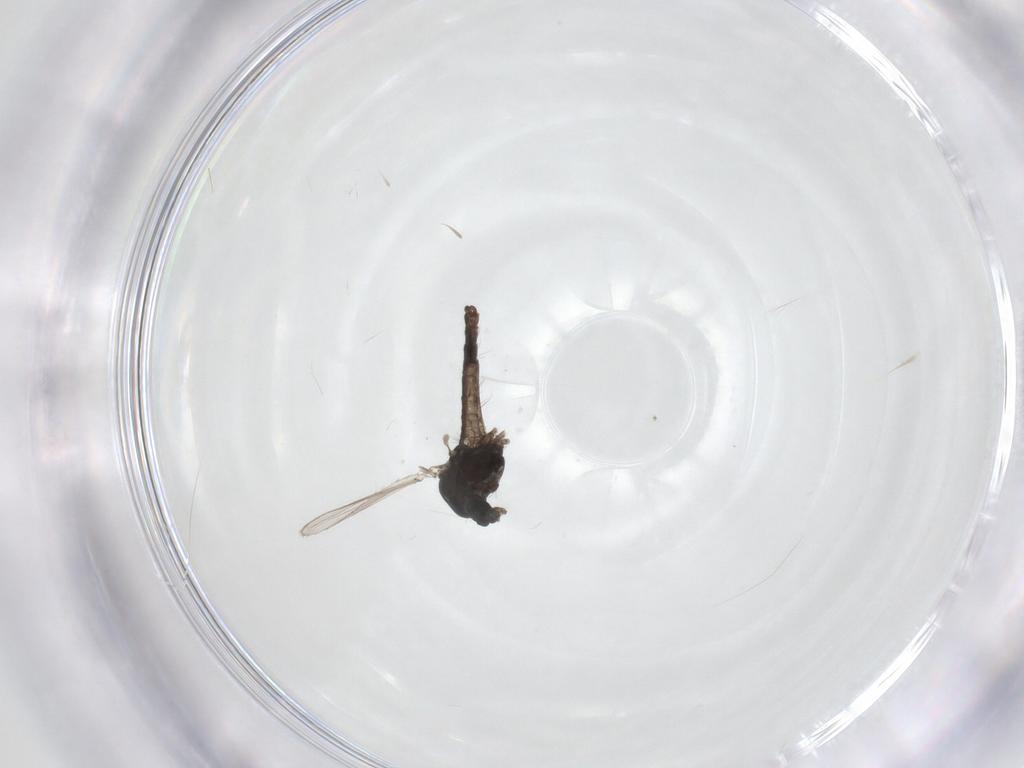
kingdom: Animalia
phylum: Arthropoda
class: Insecta
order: Diptera
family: Chironomidae
